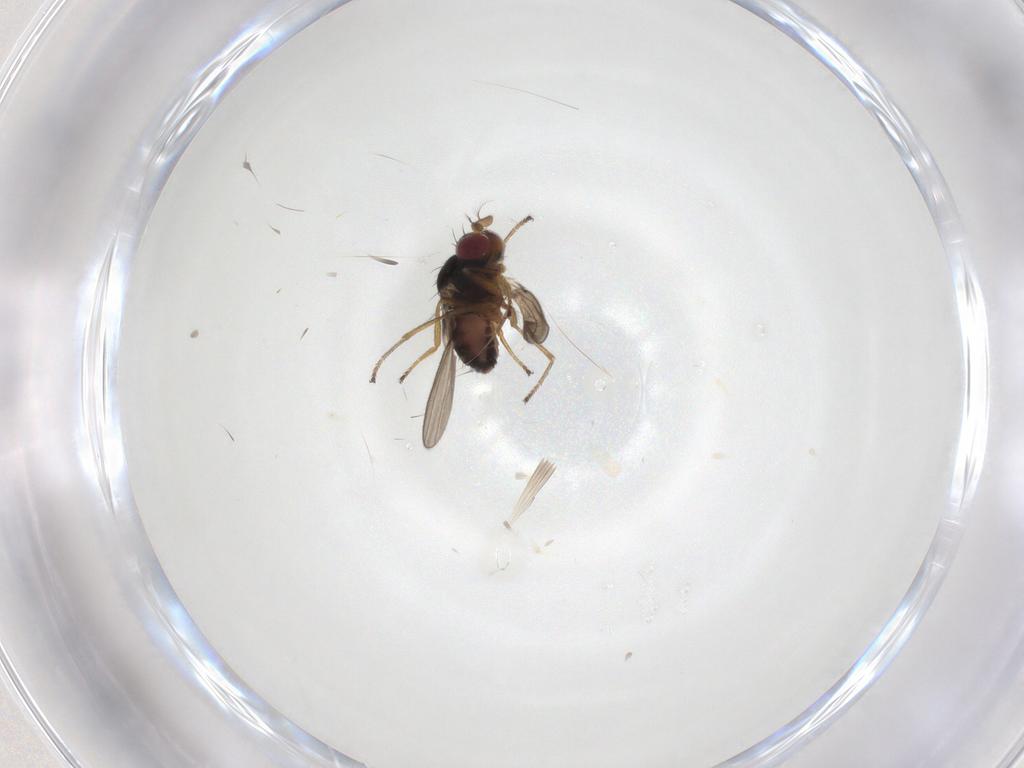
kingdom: Animalia
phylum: Arthropoda
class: Insecta
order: Diptera
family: Ephydridae
